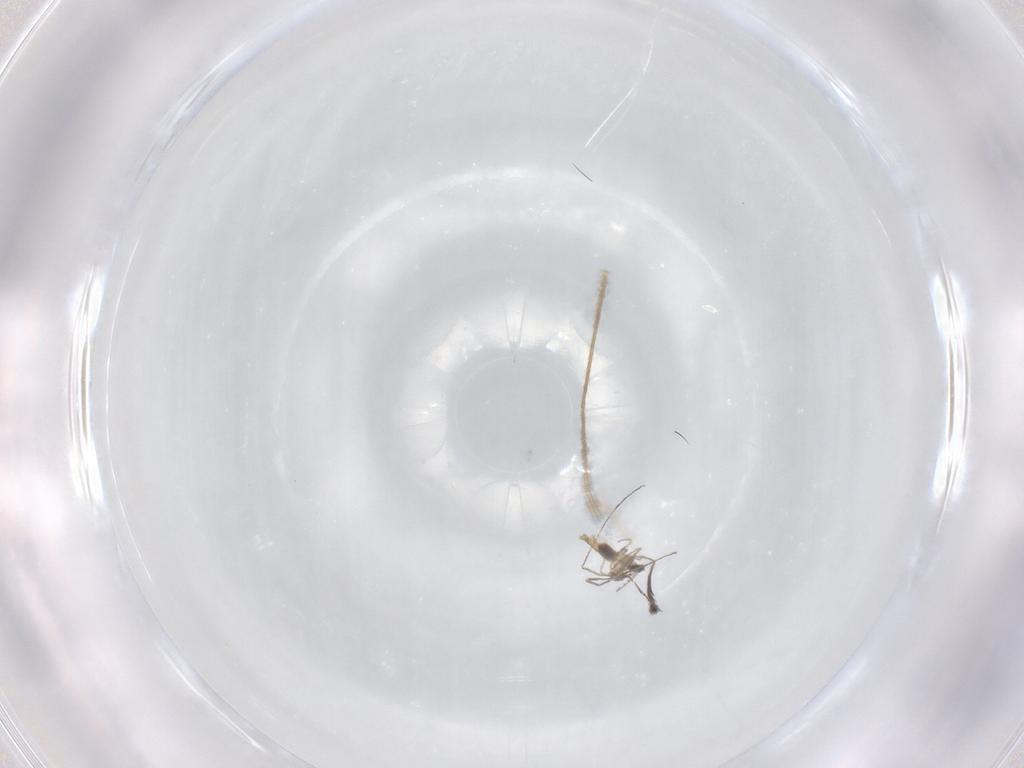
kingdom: Animalia
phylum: Arthropoda
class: Insecta
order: Diptera
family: Cecidomyiidae
